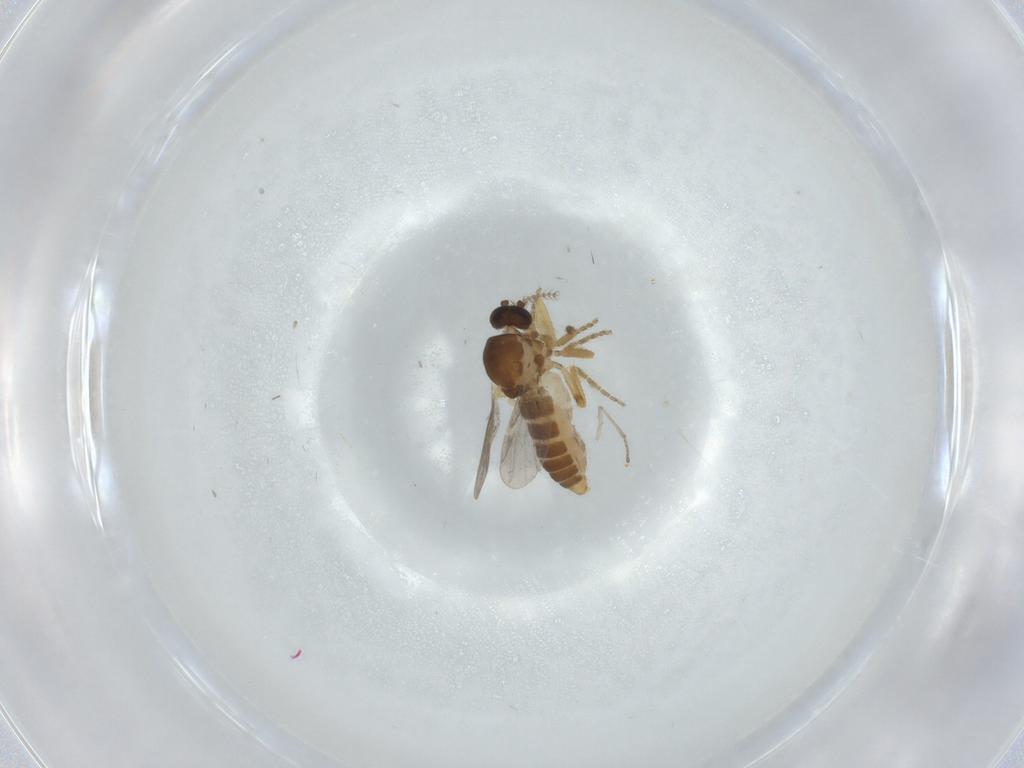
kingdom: Animalia
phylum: Arthropoda
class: Insecta
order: Diptera
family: Ceratopogonidae
